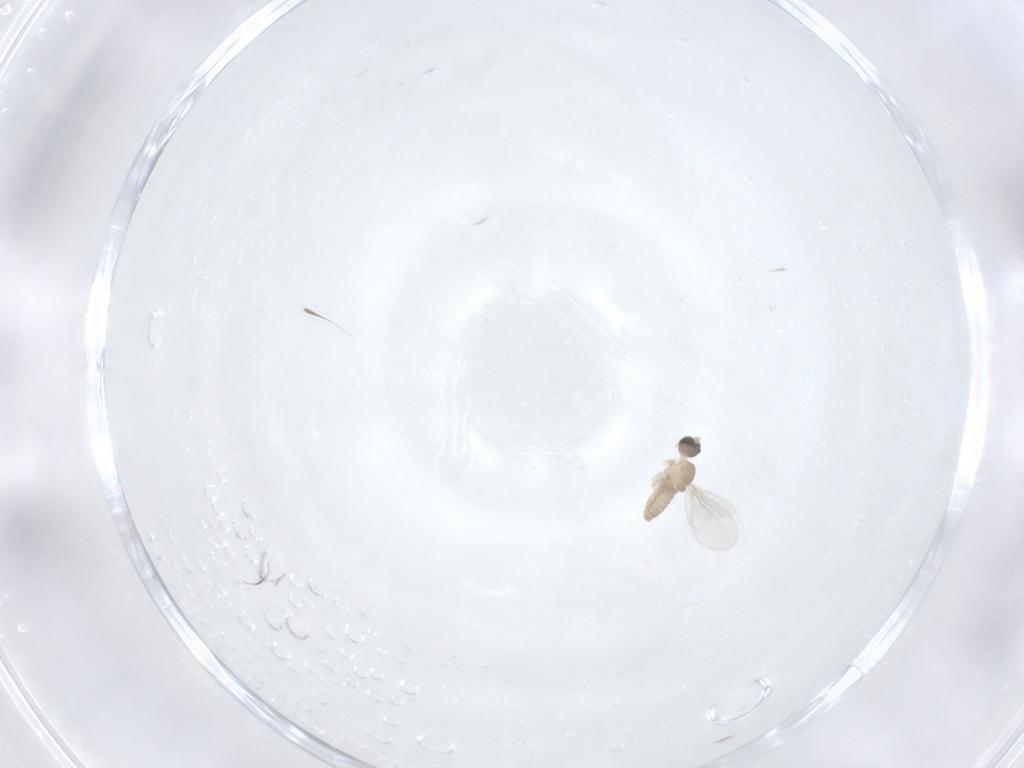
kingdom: Animalia
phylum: Arthropoda
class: Insecta
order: Diptera
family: Cecidomyiidae
